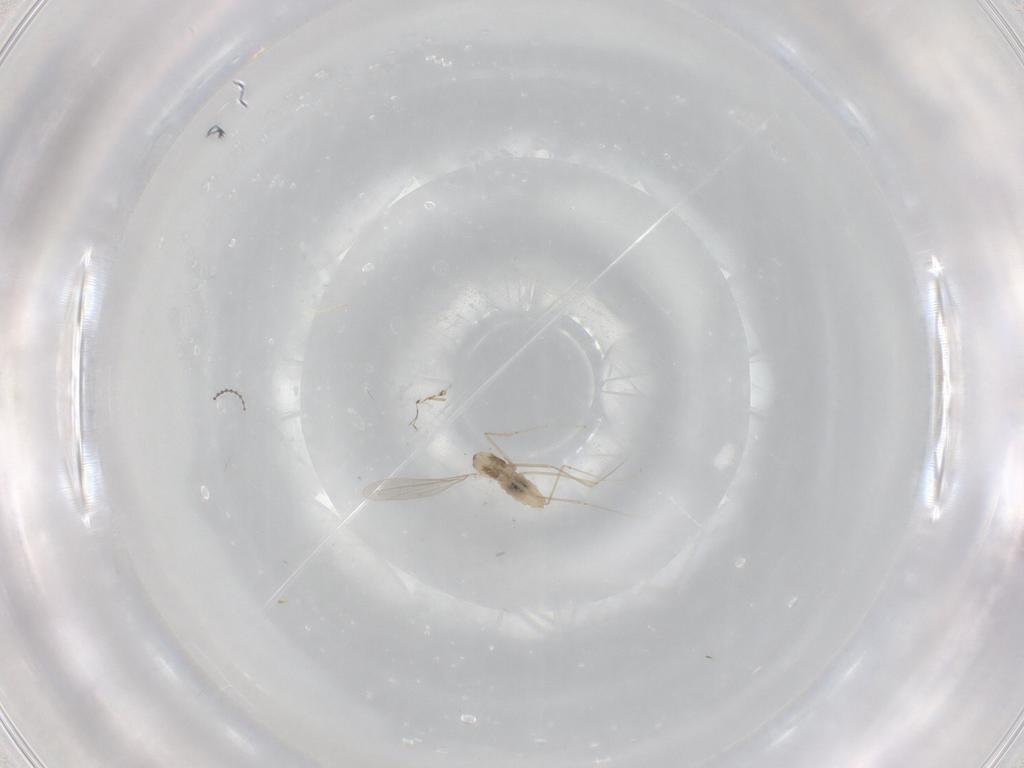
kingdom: Animalia
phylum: Arthropoda
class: Insecta
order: Diptera
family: Cecidomyiidae
